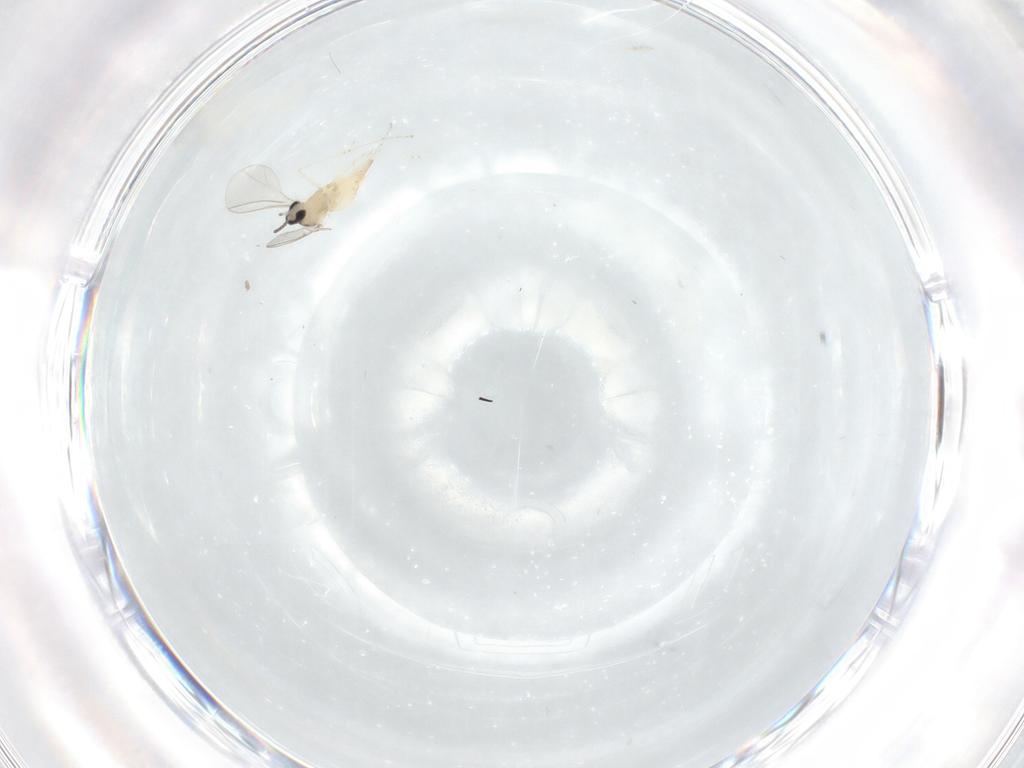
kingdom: Animalia
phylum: Arthropoda
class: Insecta
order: Diptera
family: Cecidomyiidae
